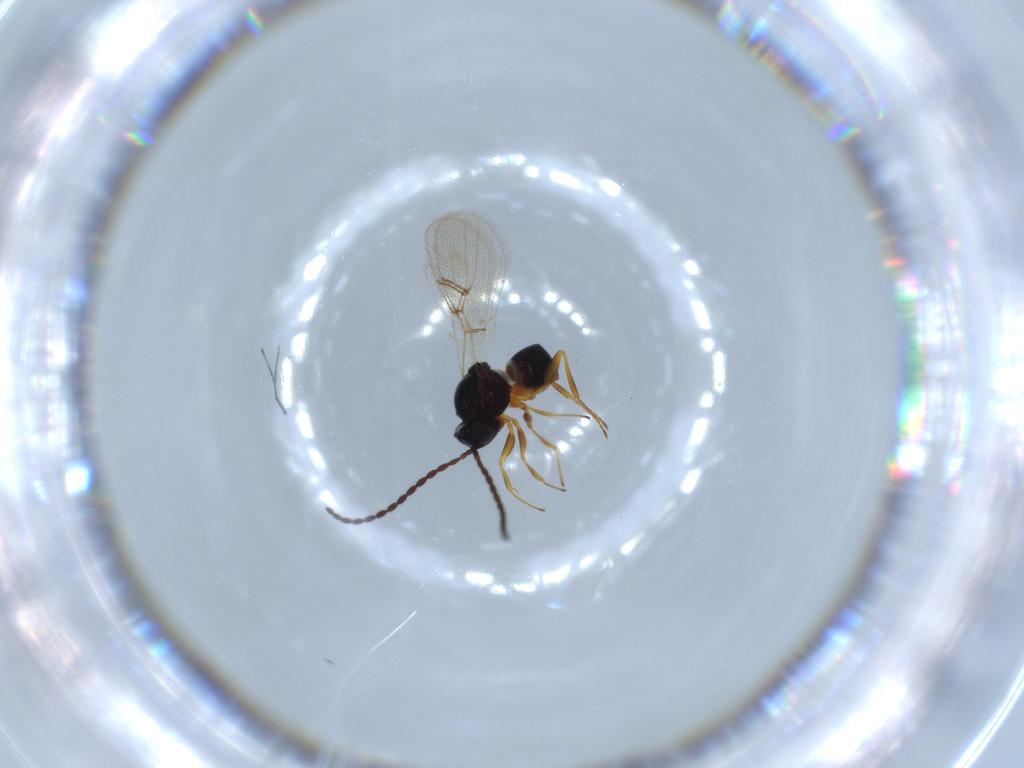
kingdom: Animalia
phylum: Arthropoda
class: Insecta
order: Hymenoptera
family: Figitidae
